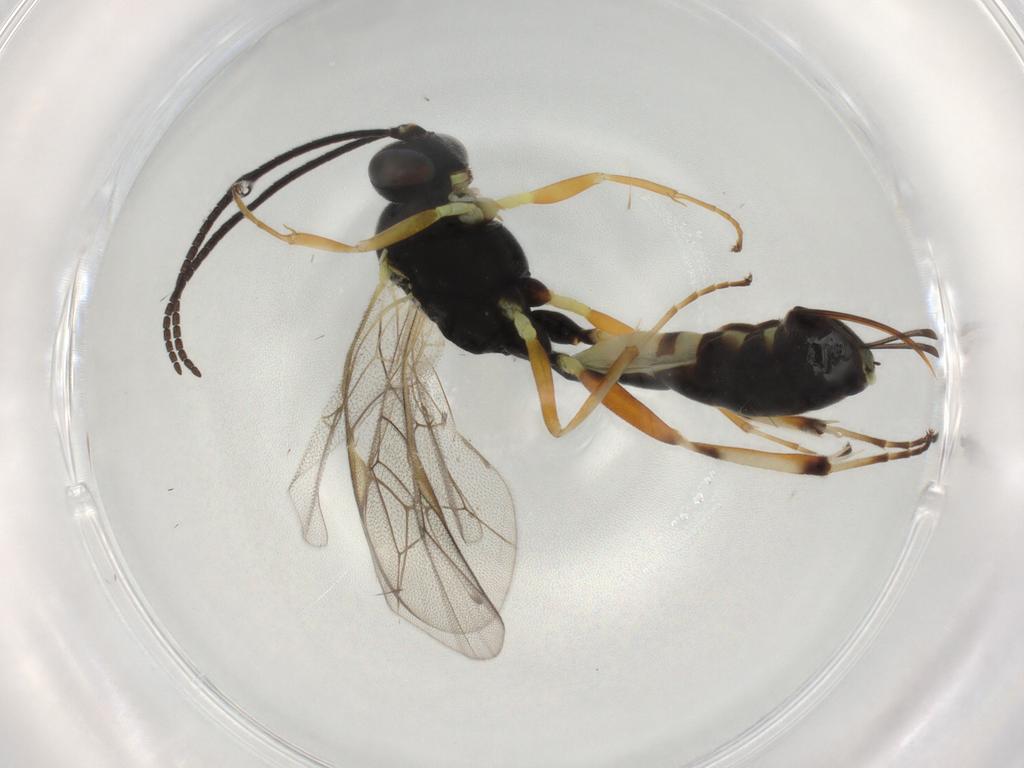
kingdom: Animalia
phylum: Arthropoda
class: Insecta
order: Hymenoptera
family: Ichneumonidae
